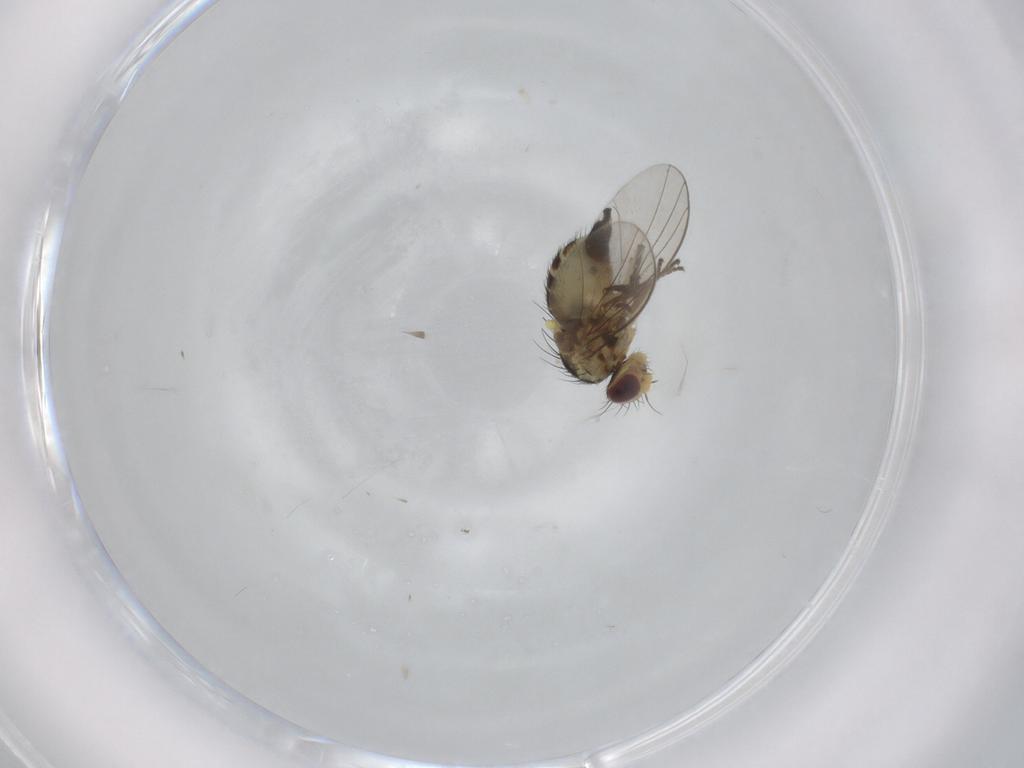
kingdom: Animalia
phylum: Arthropoda
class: Insecta
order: Diptera
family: Agromyzidae
